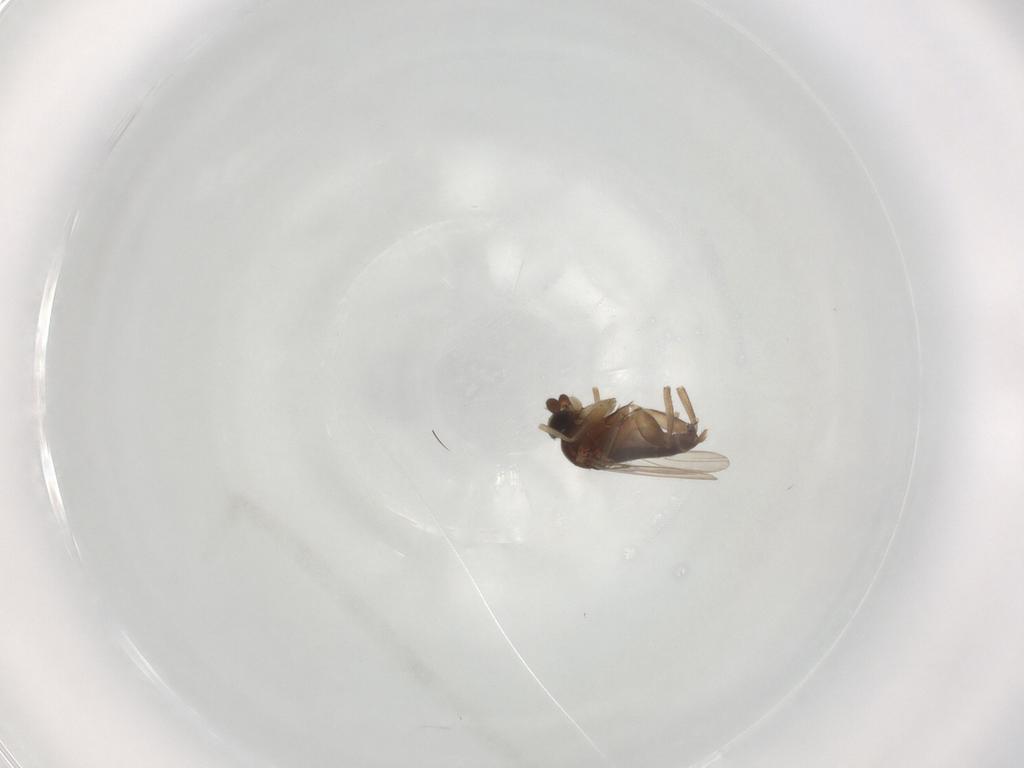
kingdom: Animalia
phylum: Arthropoda
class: Insecta
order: Diptera
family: Phoridae
